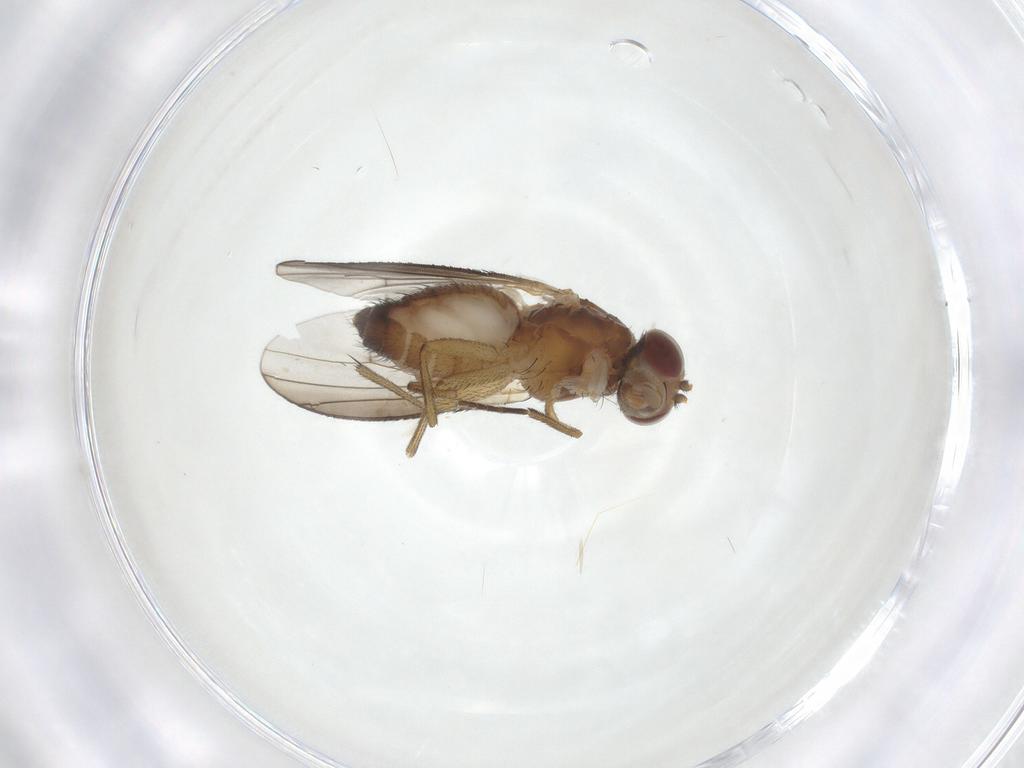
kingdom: Animalia
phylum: Arthropoda
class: Insecta
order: Diptera
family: Heleomyzidae
